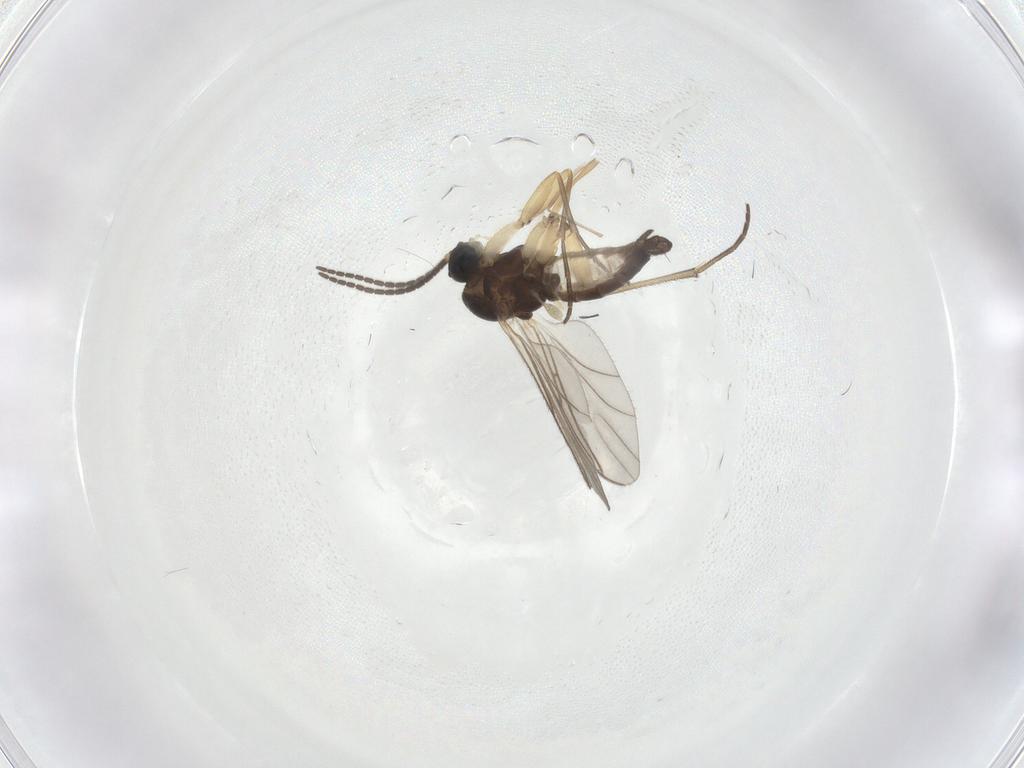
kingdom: Animalia
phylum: Arthropoda
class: Insecta
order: Diptera
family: Sciaridae
